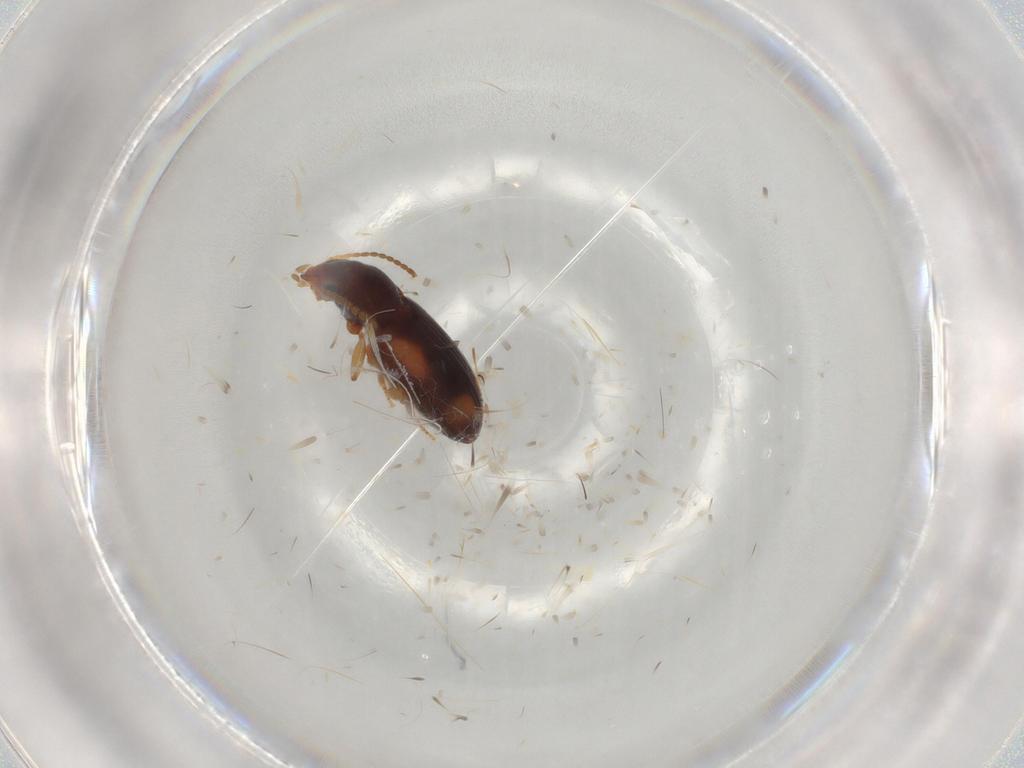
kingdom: Animalia
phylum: Arthropoda
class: Insecta
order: Coleoptera
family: Carabidae
